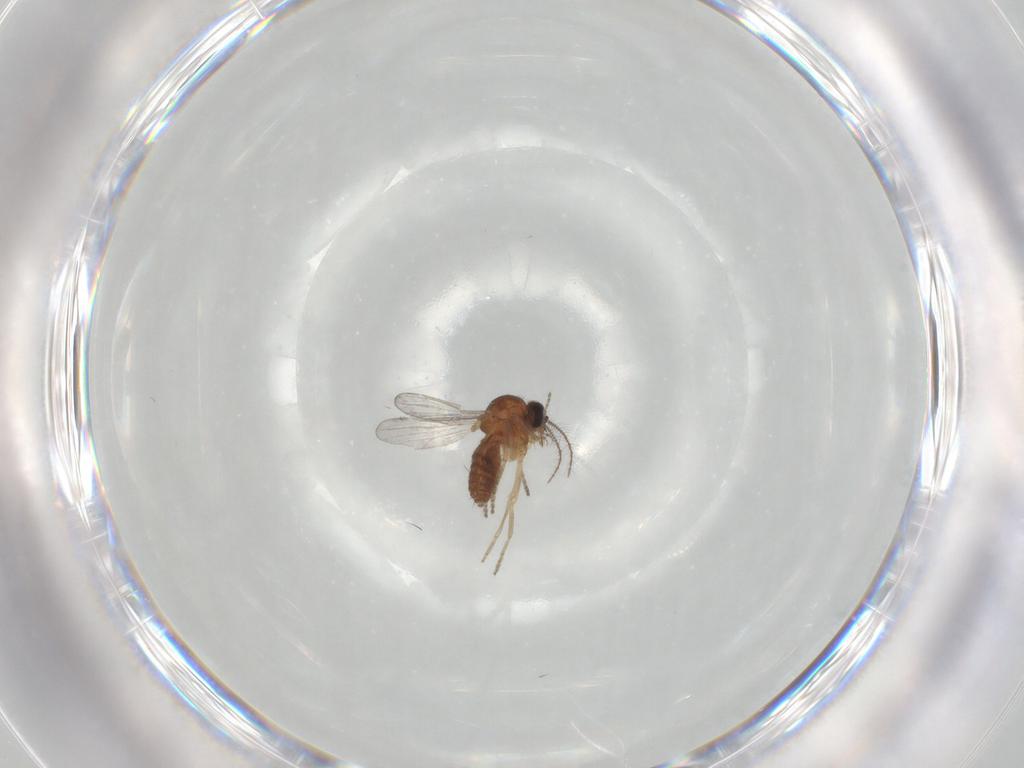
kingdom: Animalia
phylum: Arthropoda
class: Insecta
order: Diptera
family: Ceratopogonidae
